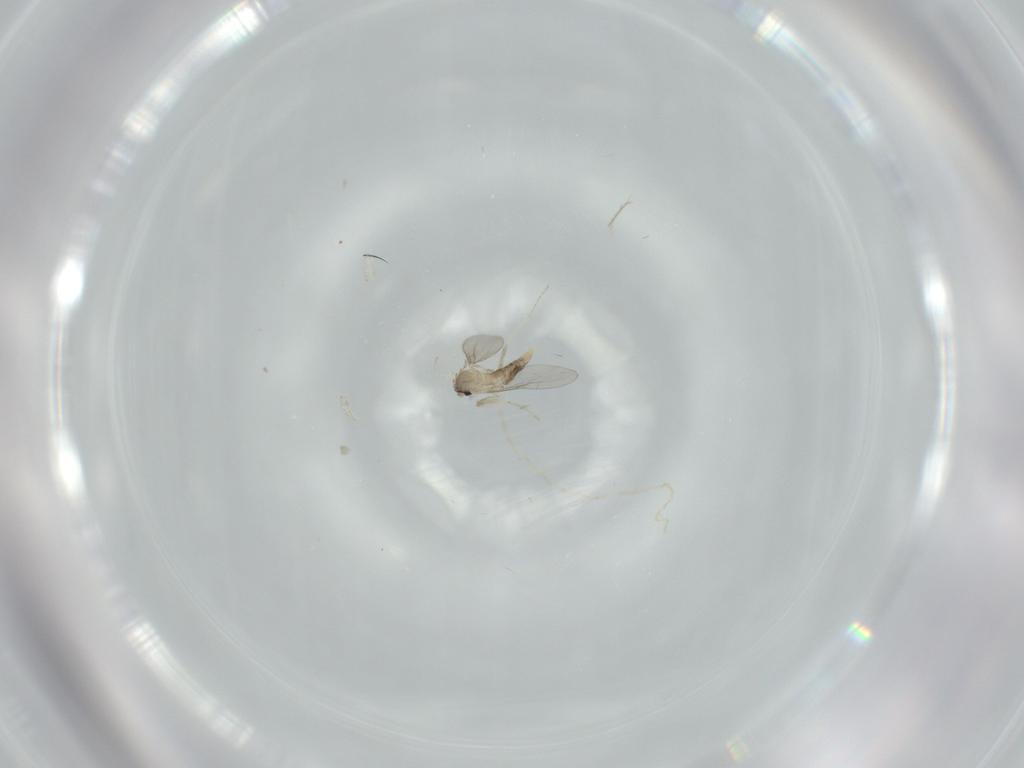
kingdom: Animalia
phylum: Arthropoda
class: Insecta
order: Diptera
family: Cecidomyiidae
